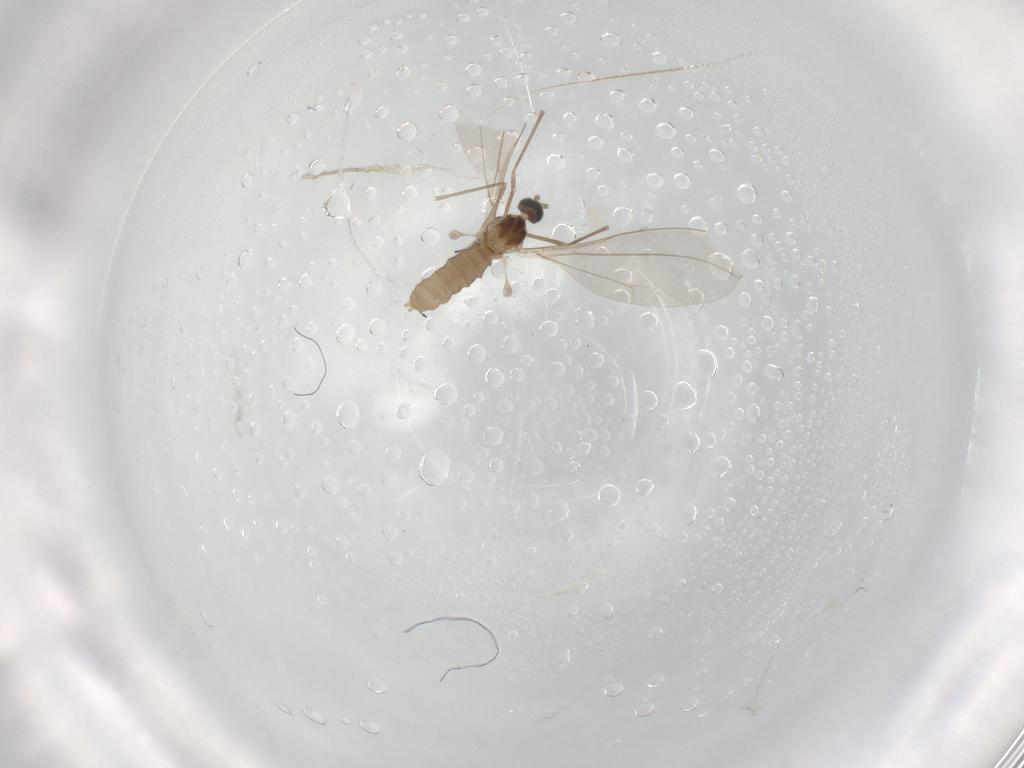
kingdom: Animalia
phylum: Arthropoda
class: Insecta
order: Diptera
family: Cecidomyiidae
